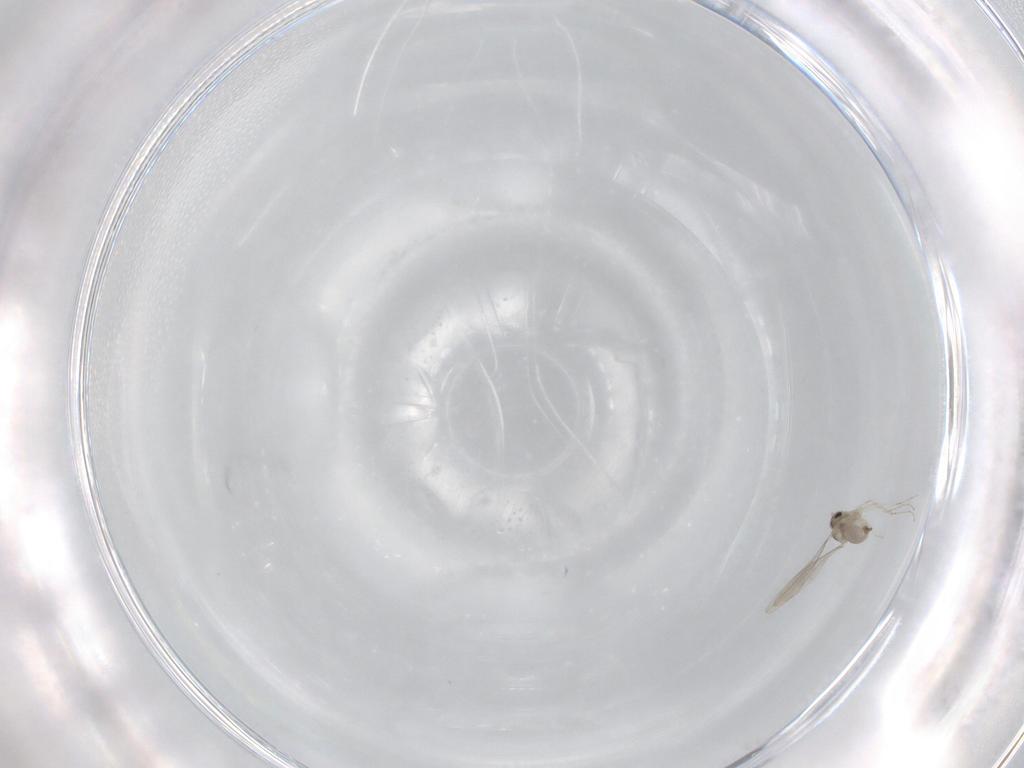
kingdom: Animalia
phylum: Arthropoda
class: Insecta
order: Diptera
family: Cecidomyiidae
